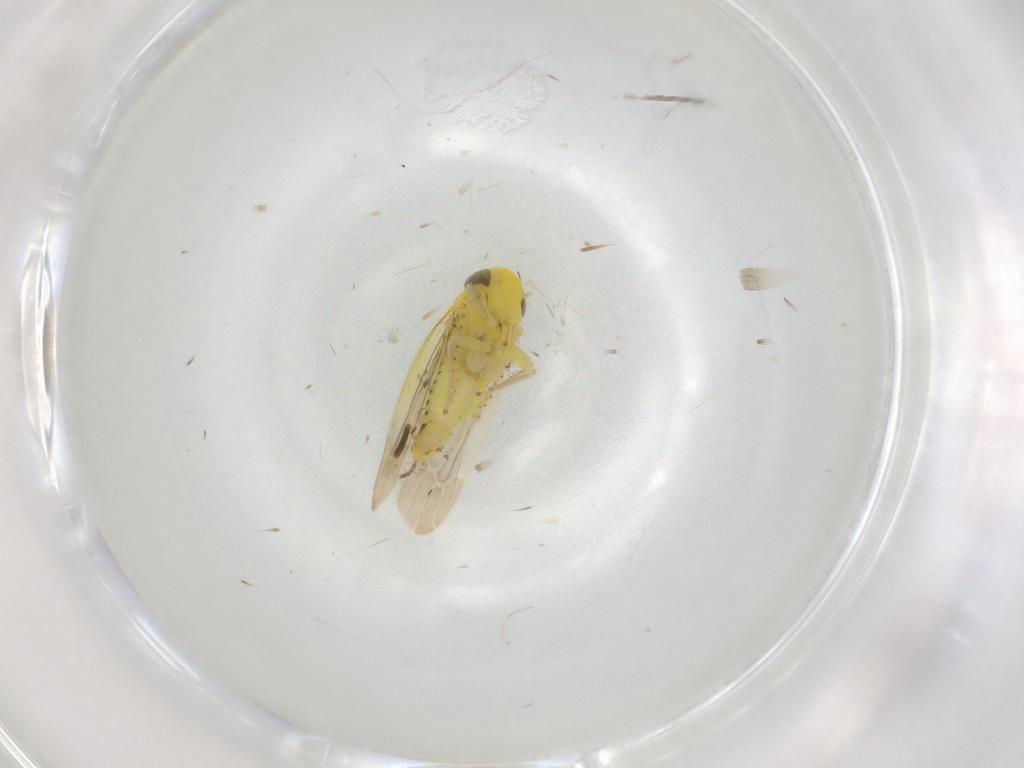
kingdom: Animalia
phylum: Arthropoda
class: Insecta
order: Hemiptera
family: Cicadellidae
